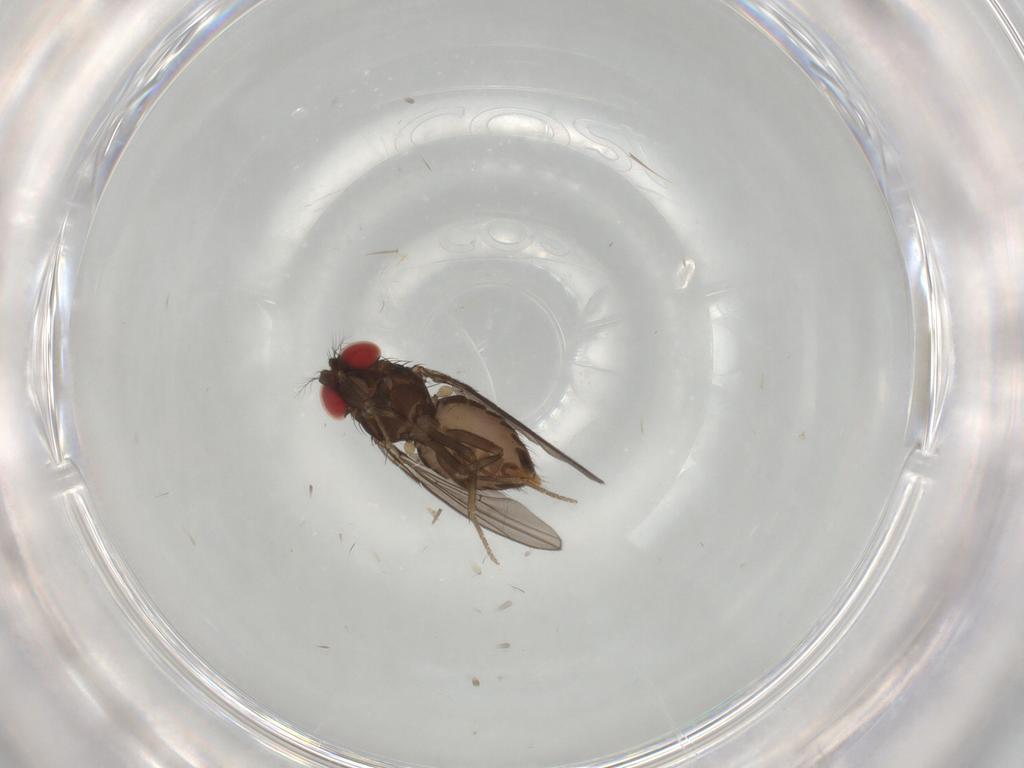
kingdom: Animalia
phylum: Arthropoda
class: Insecta
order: Diptera
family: Drosophilidae
